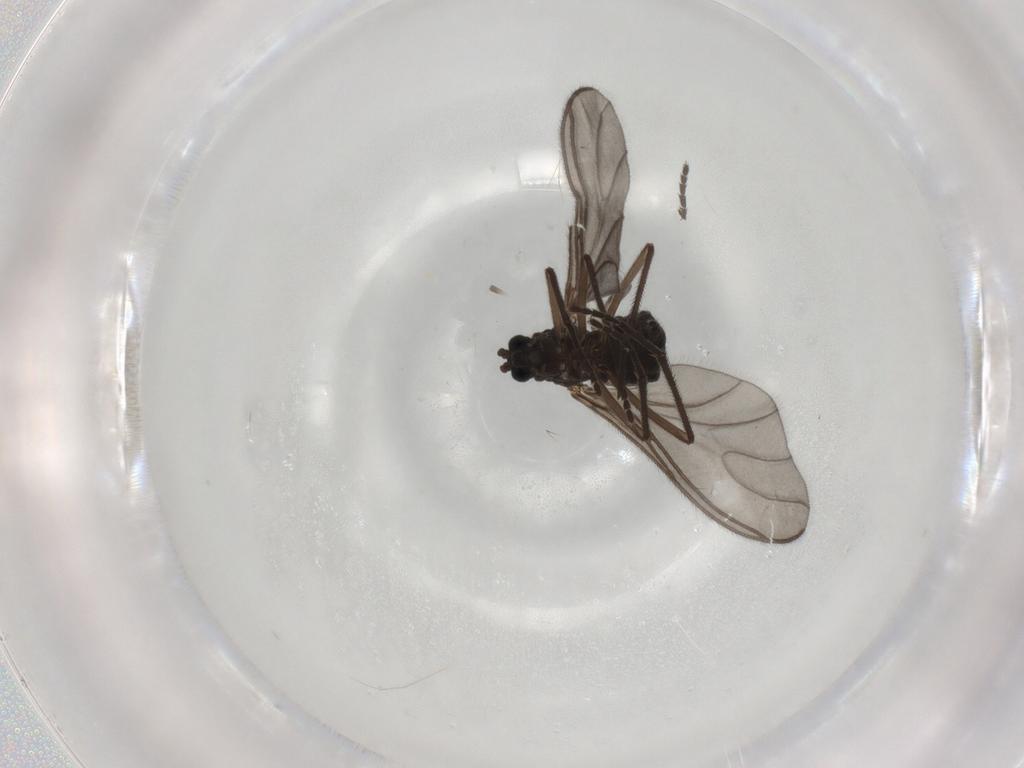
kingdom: Animalia
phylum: Arthropoda
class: Insecta
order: Diptera
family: Sciaridae
